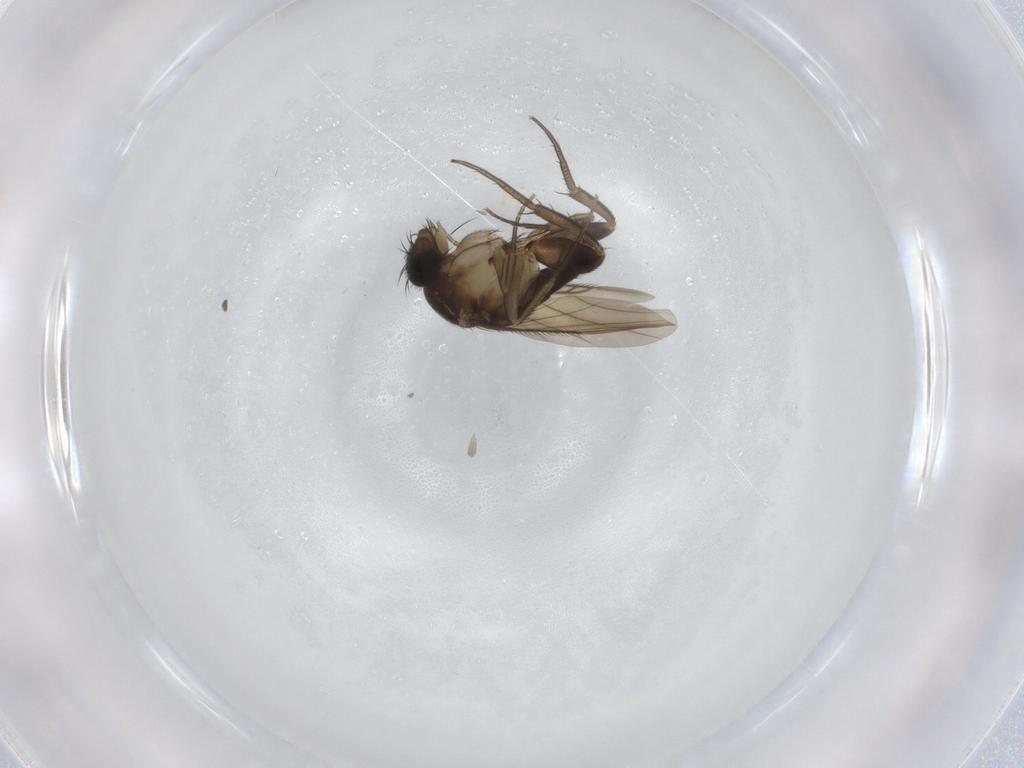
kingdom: Animalia
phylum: Arthropoda
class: Insecta
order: Diptera
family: Phoridae
